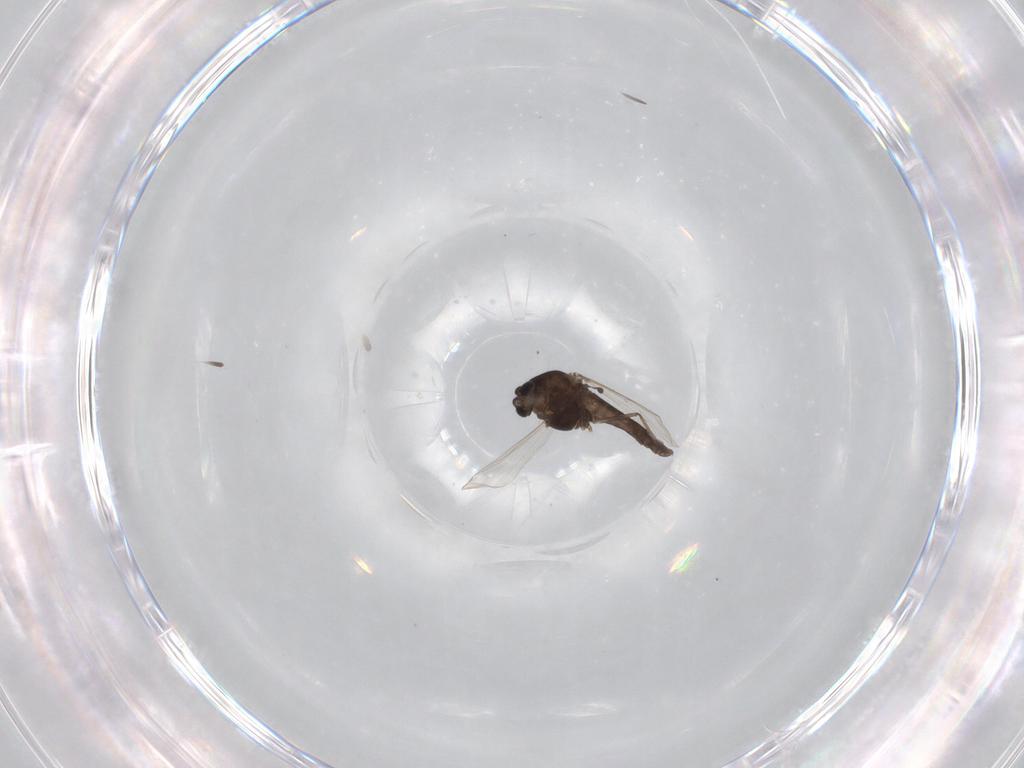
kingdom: Animalia
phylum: Arthropoda
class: Insecta
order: Diptera
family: Chironomidae
